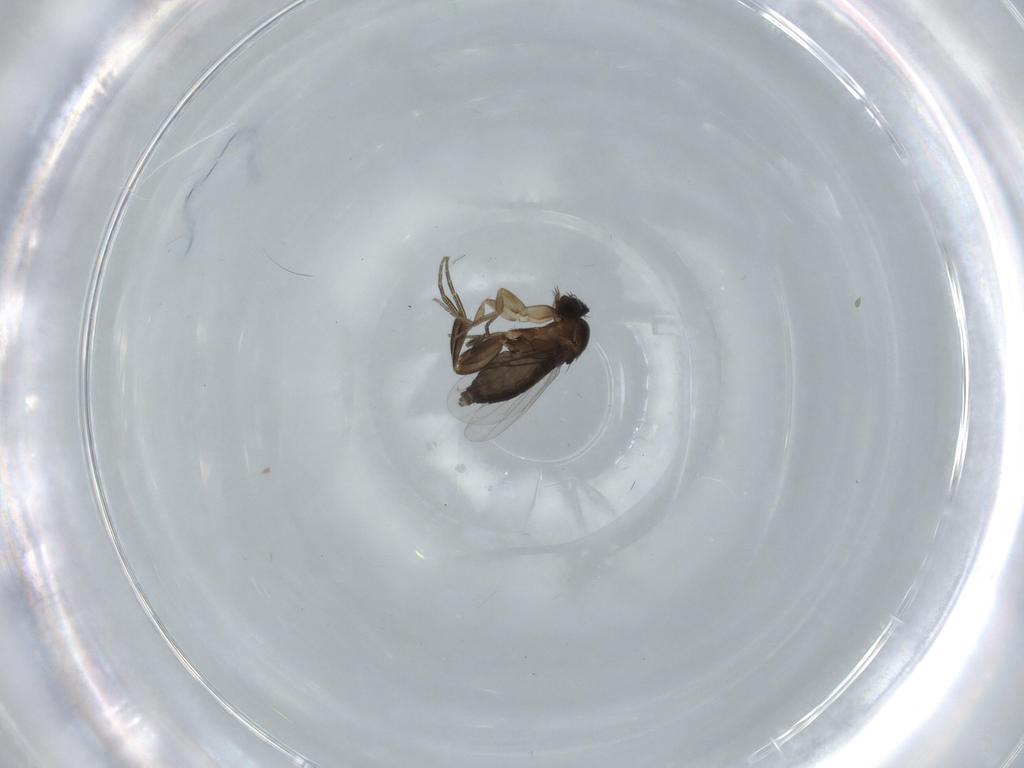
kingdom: Animalia
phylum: Arthropoda
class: Insecta
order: Diptera
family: Phoridae
